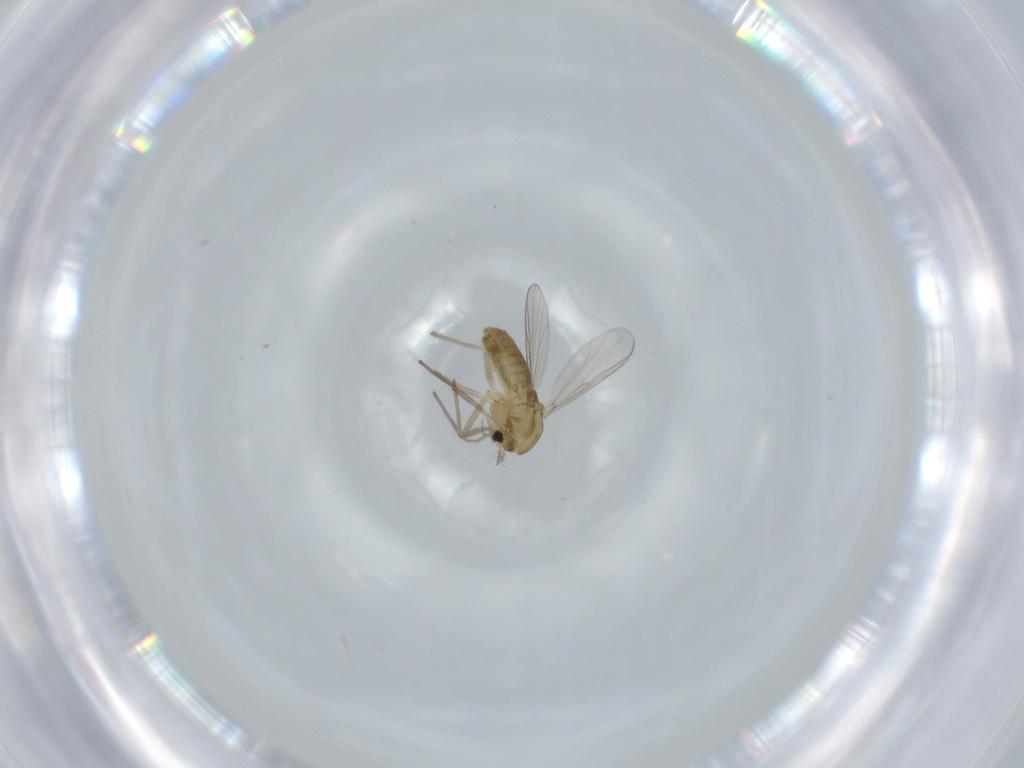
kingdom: Animalia
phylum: Arthropoda
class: Insecta
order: Diptera
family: Chironomidae
